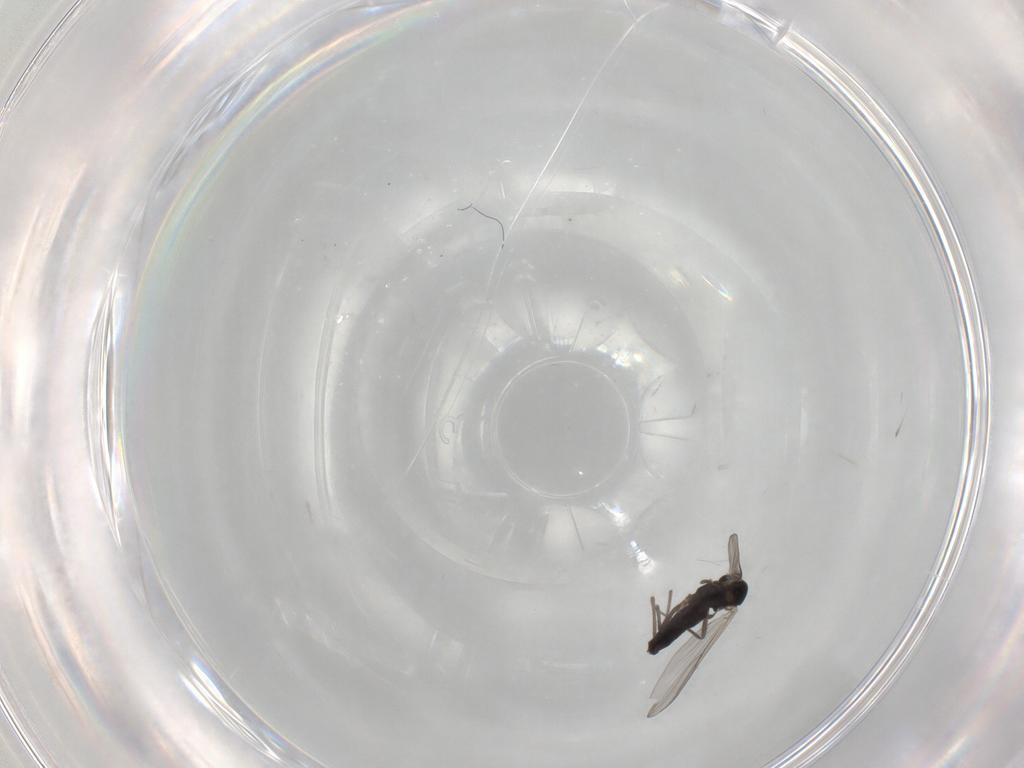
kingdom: Animalia
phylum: Arthropoda
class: Insecta
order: Diptera
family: Chironomidae
